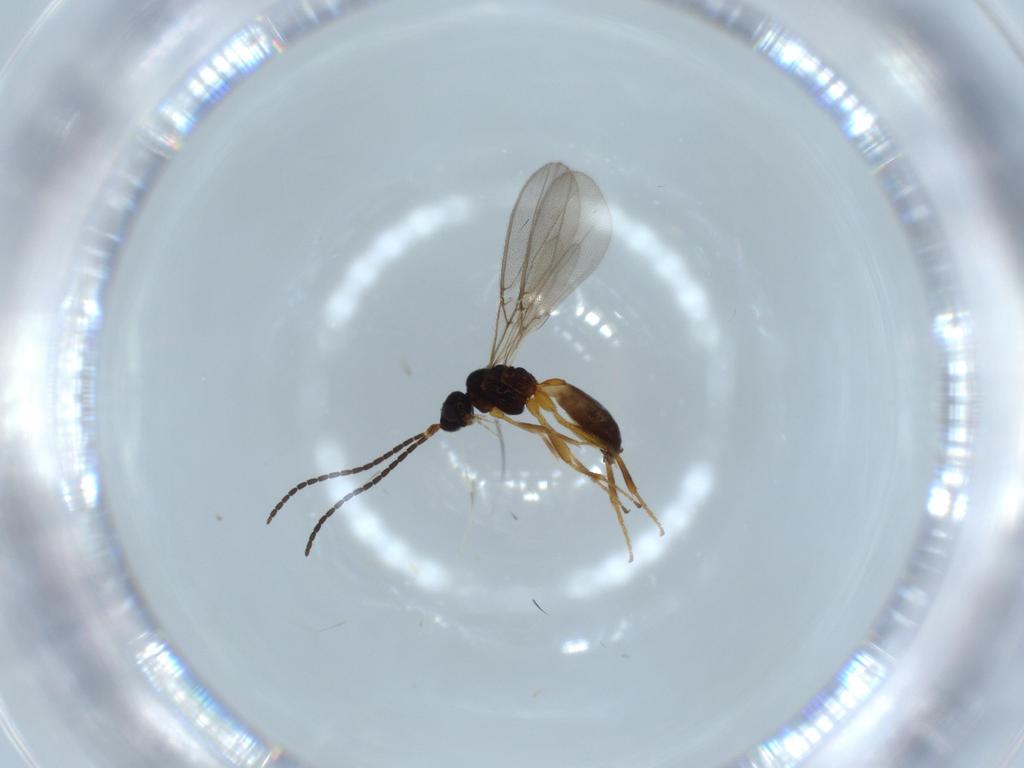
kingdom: Animalia
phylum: Arthropoda
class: Insecta
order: Hymenoptera
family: Braconidae
